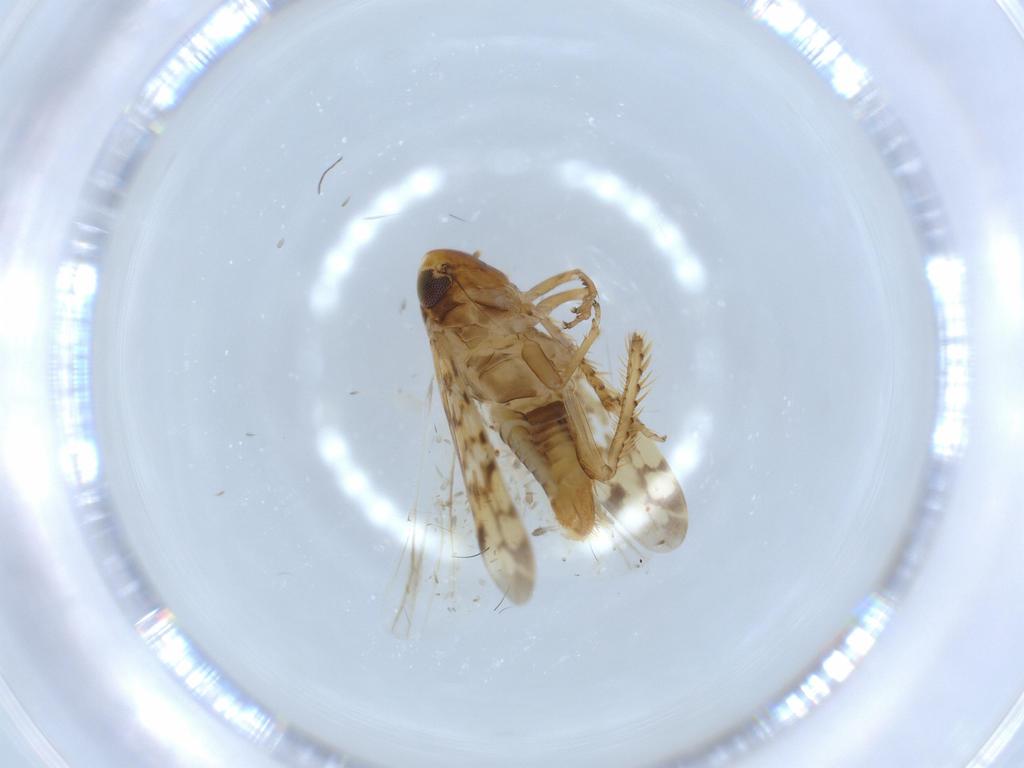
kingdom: Animalia
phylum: Arthropoda
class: Insecta
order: Hemiptera
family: Cicadellidae
